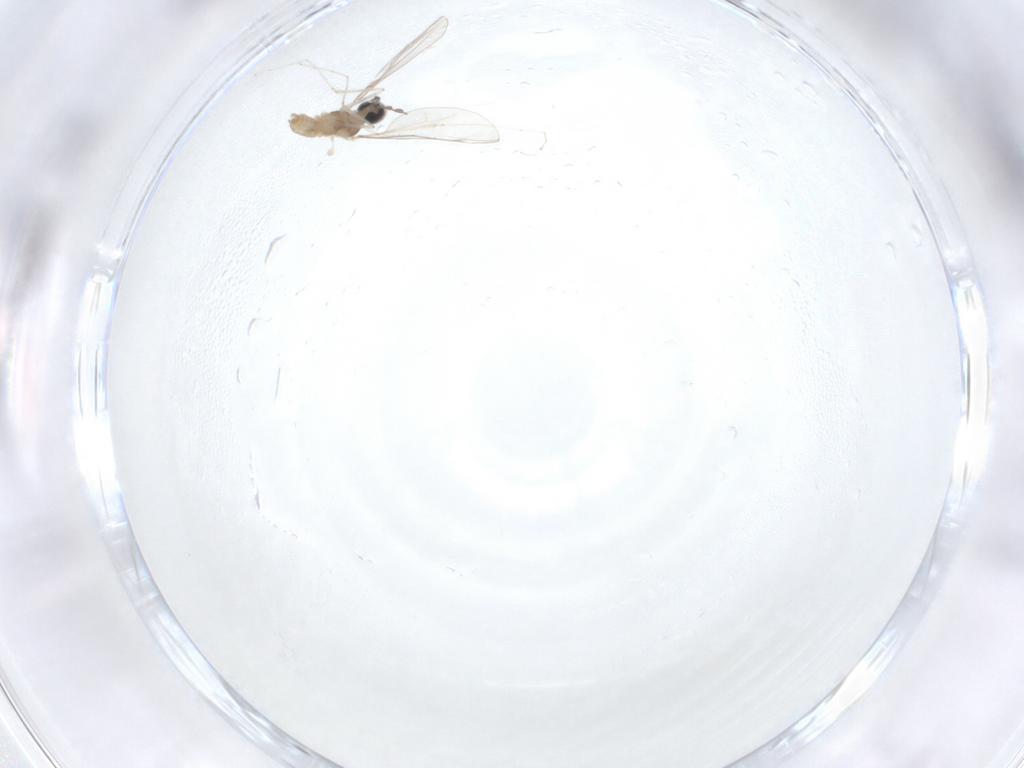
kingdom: Animalia
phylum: Arthropoda
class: Insecta
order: Diptera
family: Cecidomyiidae
